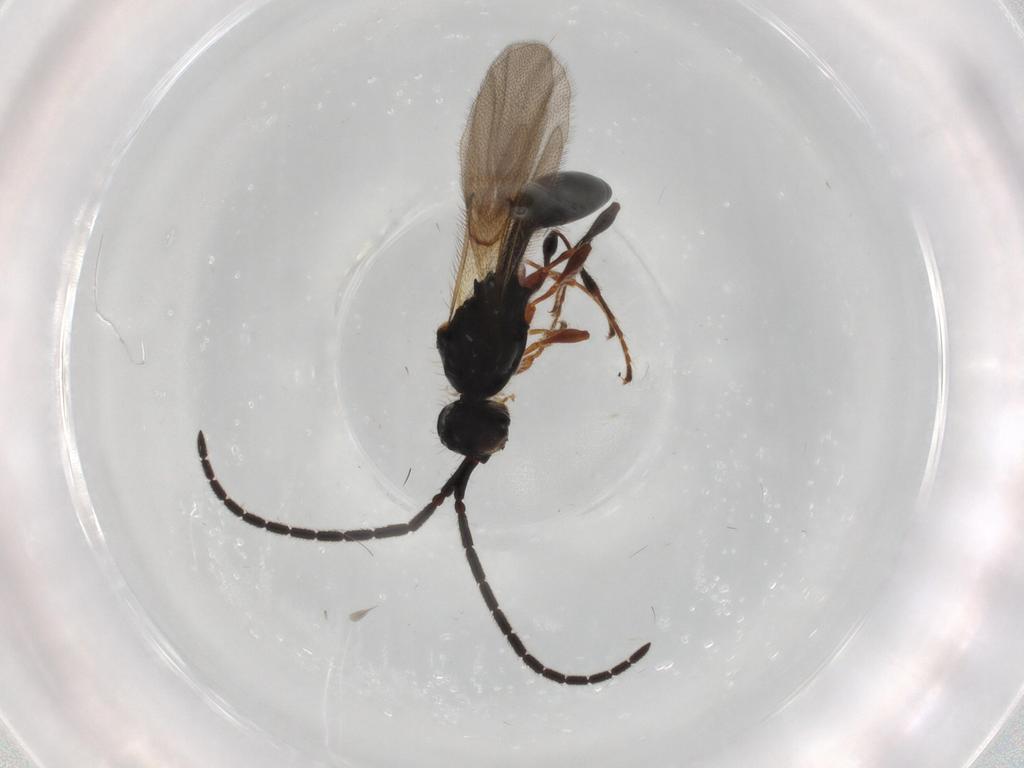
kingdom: Animalia
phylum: Arthropoda
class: Insecta
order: Hymenoptera
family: Diapriidae
